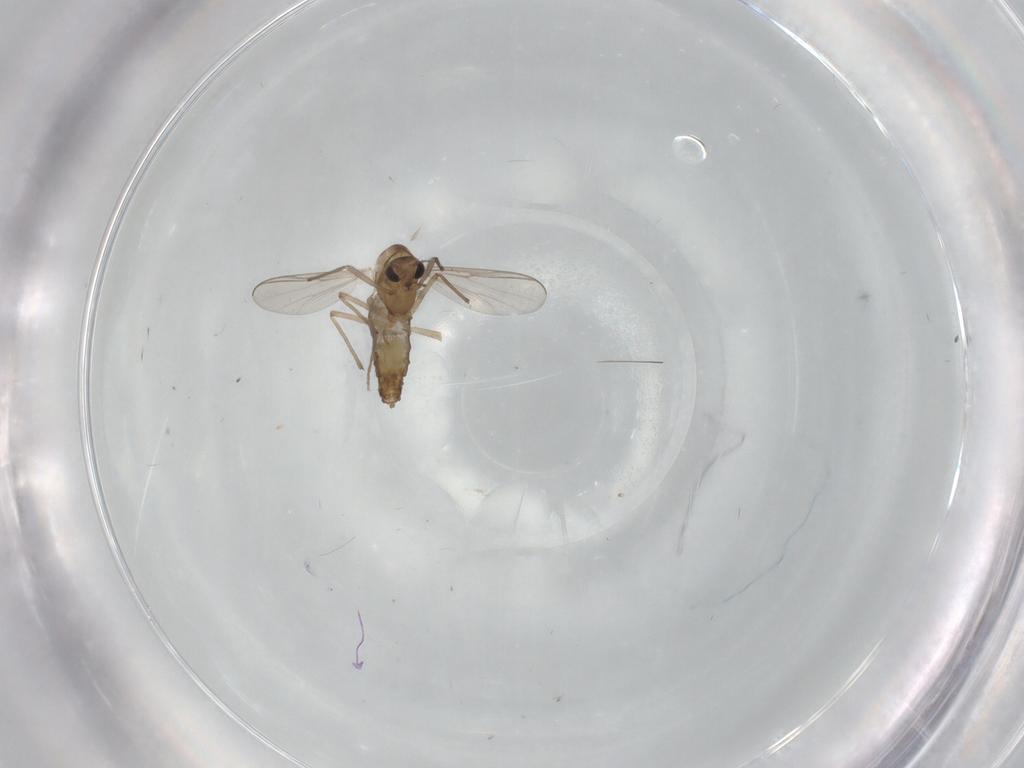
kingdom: Animalia
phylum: Arthropoda
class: Insecta
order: Diptera
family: Chironomidae
